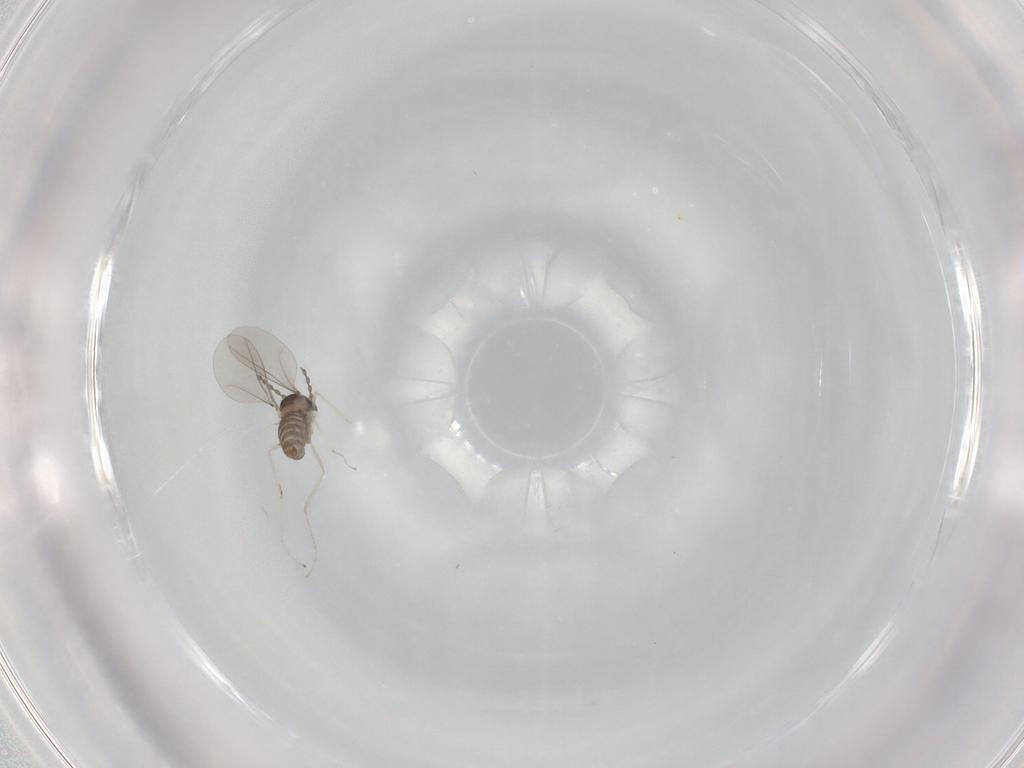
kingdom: Animalia
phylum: Arthropoda
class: Insecta
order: Diptera
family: Cecidomyiidae
